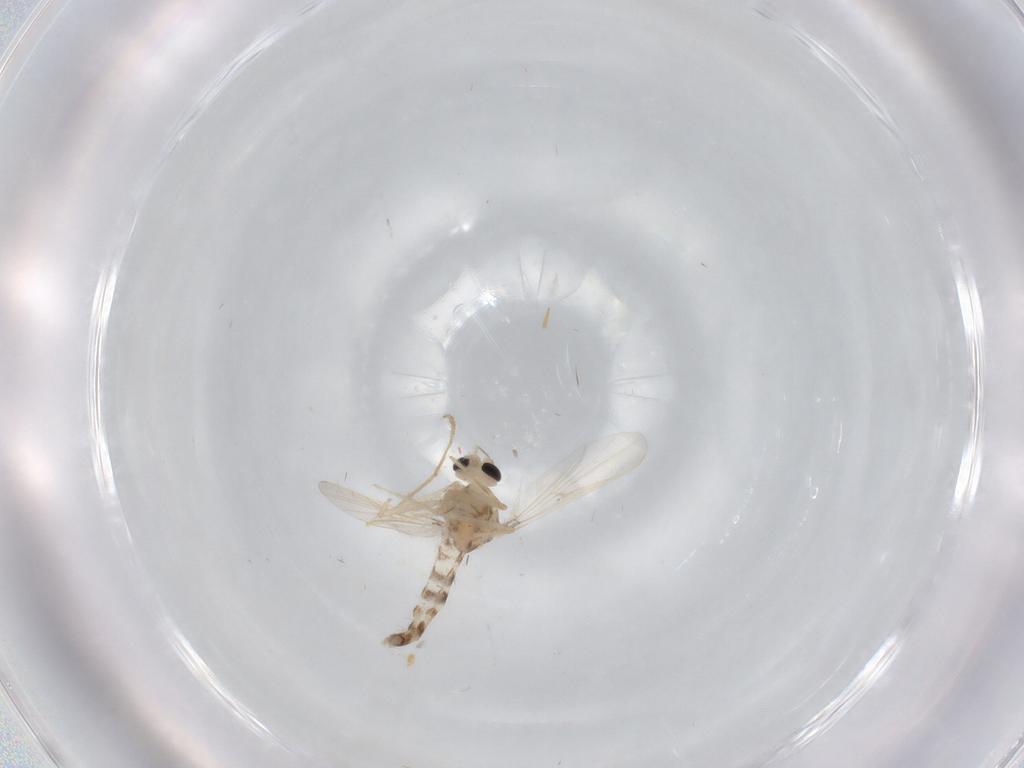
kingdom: Animalia
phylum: Arthropoda
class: Insecta
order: Diptera
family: Chironomidae
